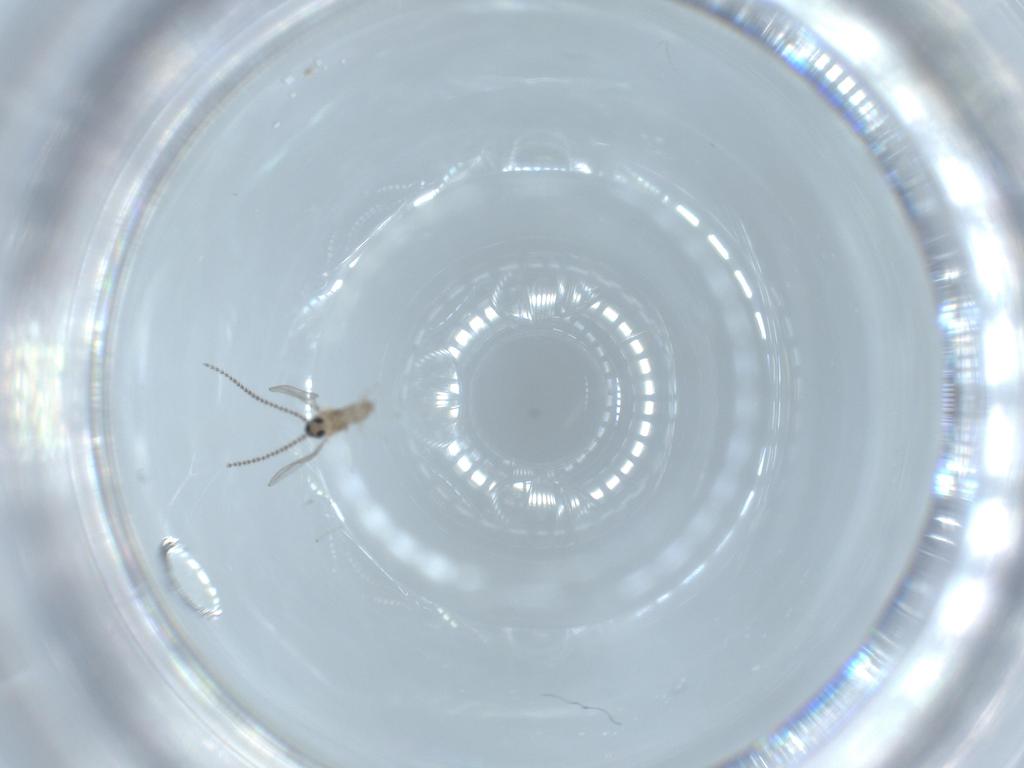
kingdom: Animalia
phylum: Arthropoda
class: Insecta
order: Diptera
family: Cecidomyiidae
